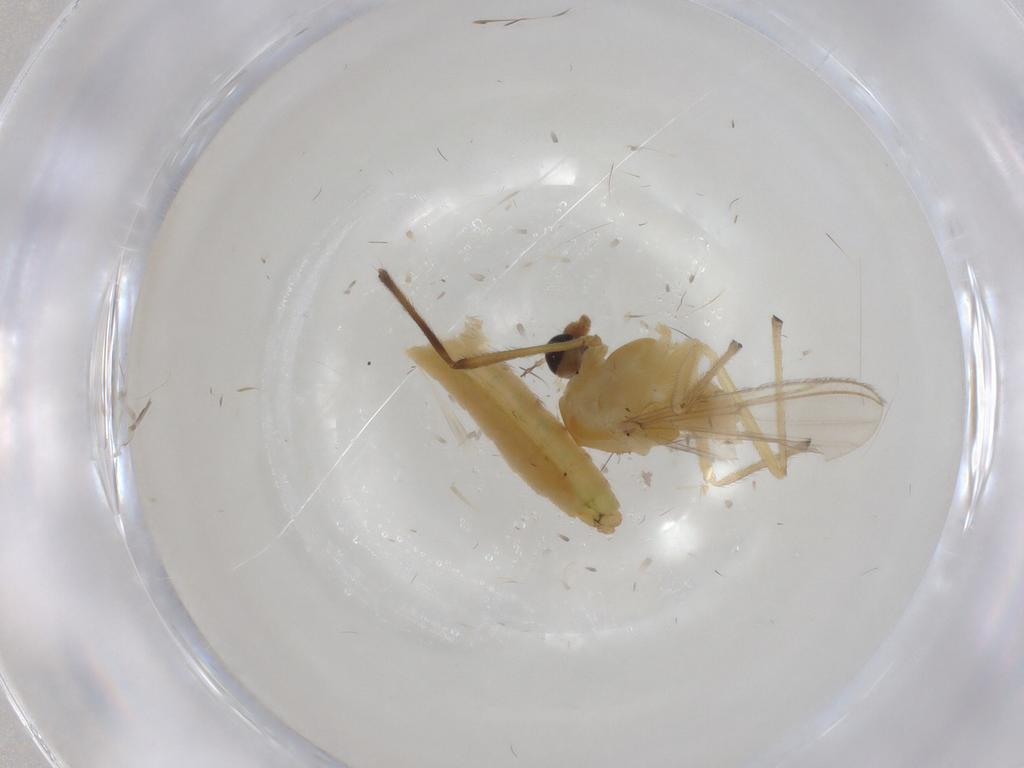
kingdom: Animalia
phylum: Arthropoda
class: Insecta
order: Diptera
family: Chironomidae
